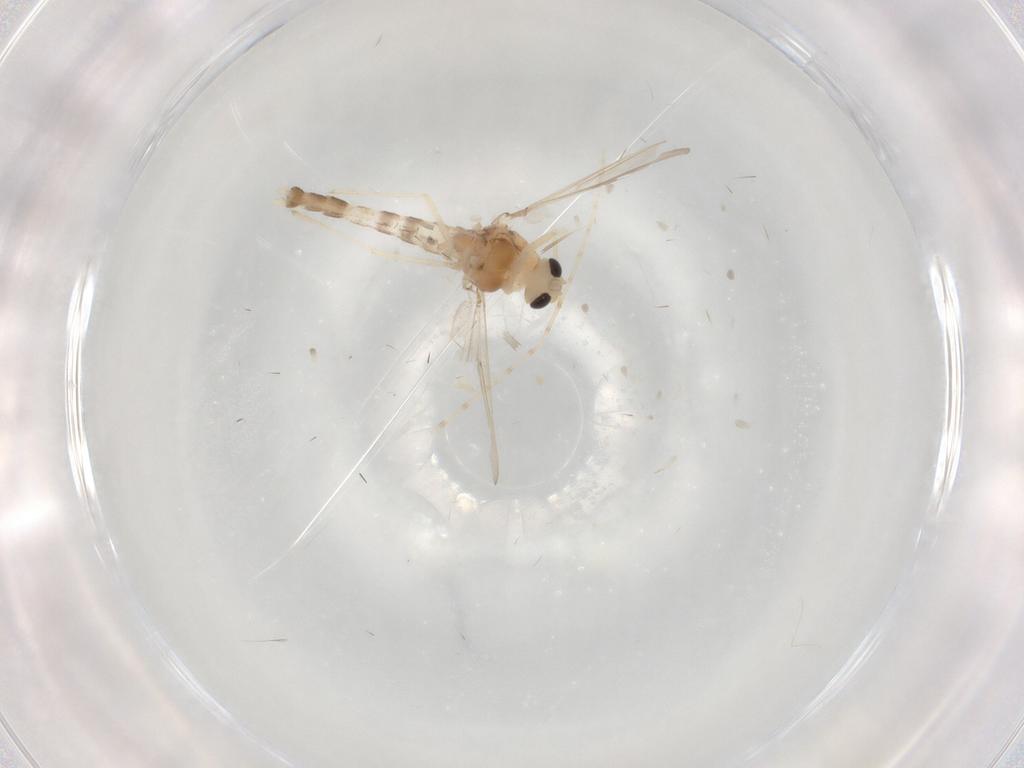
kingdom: Animalia
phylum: Arthropoda
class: Insecta
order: Diptera
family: Chironomidae
